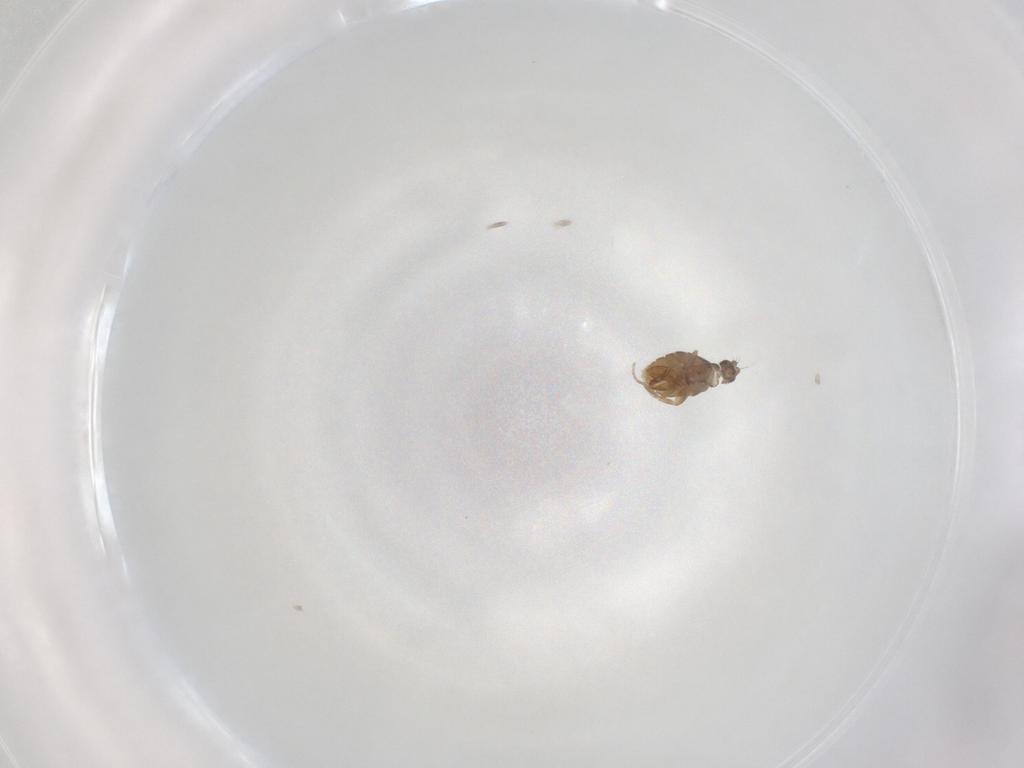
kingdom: Animalia
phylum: Arthropoda
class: Insecta
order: Diptera
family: Phoridae
